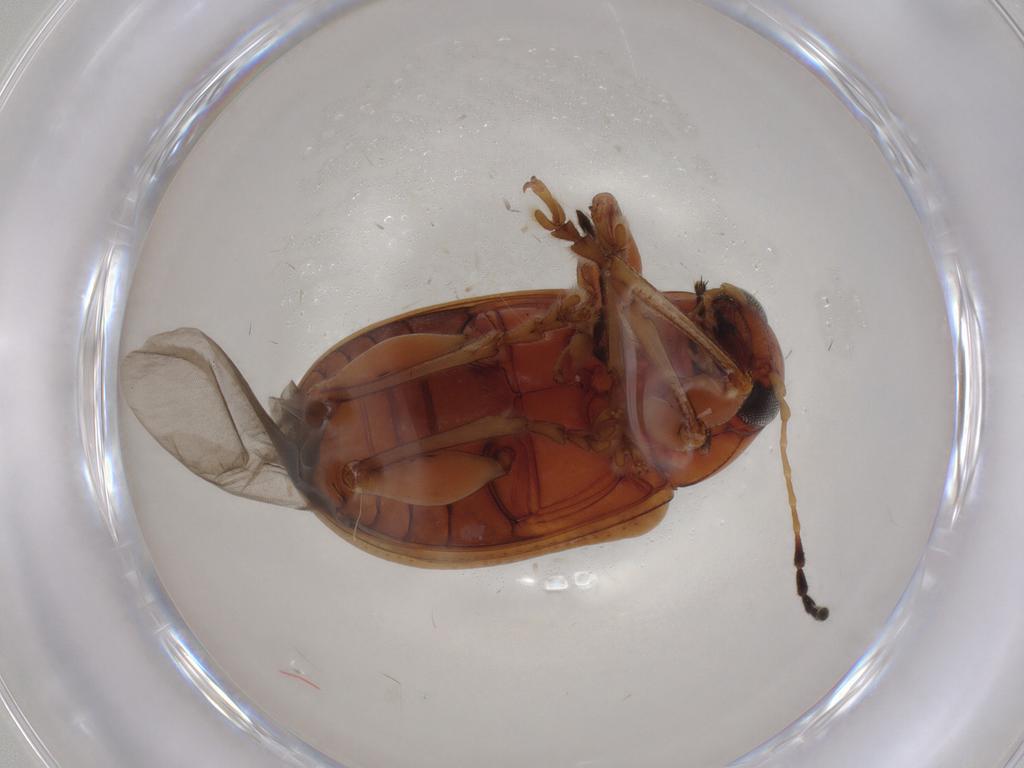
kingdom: Animalia
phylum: Arthropoda
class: Insecta
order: Coleoptera
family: Chrysomelidae
